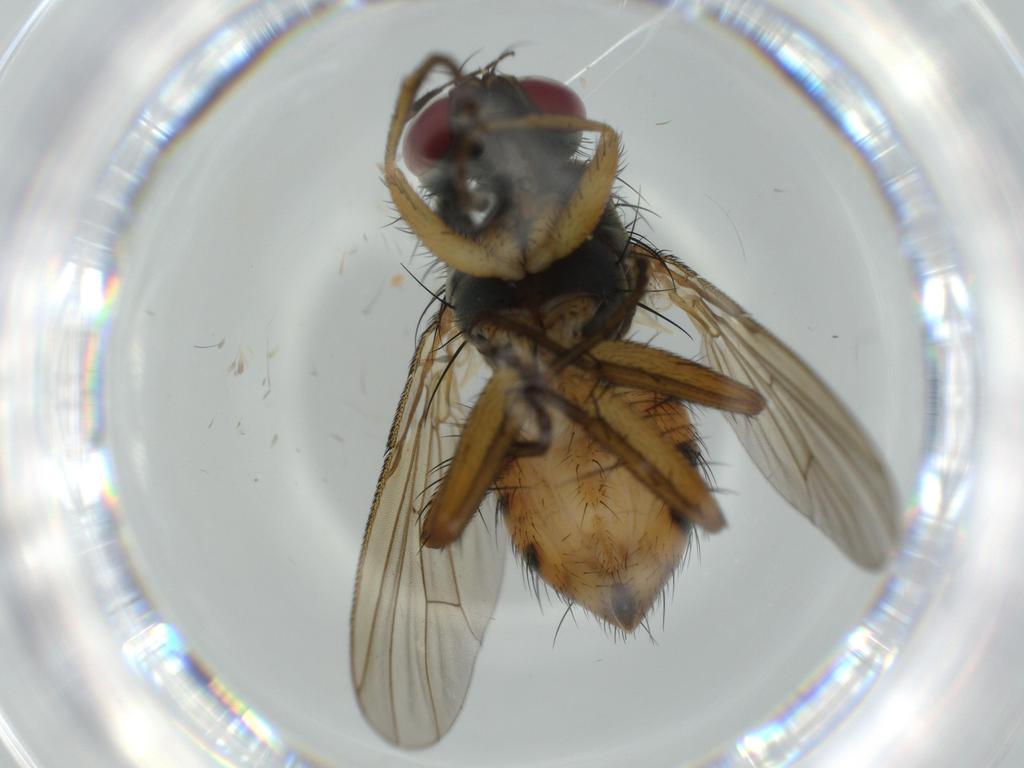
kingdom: Animalia
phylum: Arthropoda
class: Insecta
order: Diptera
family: Muscidae
